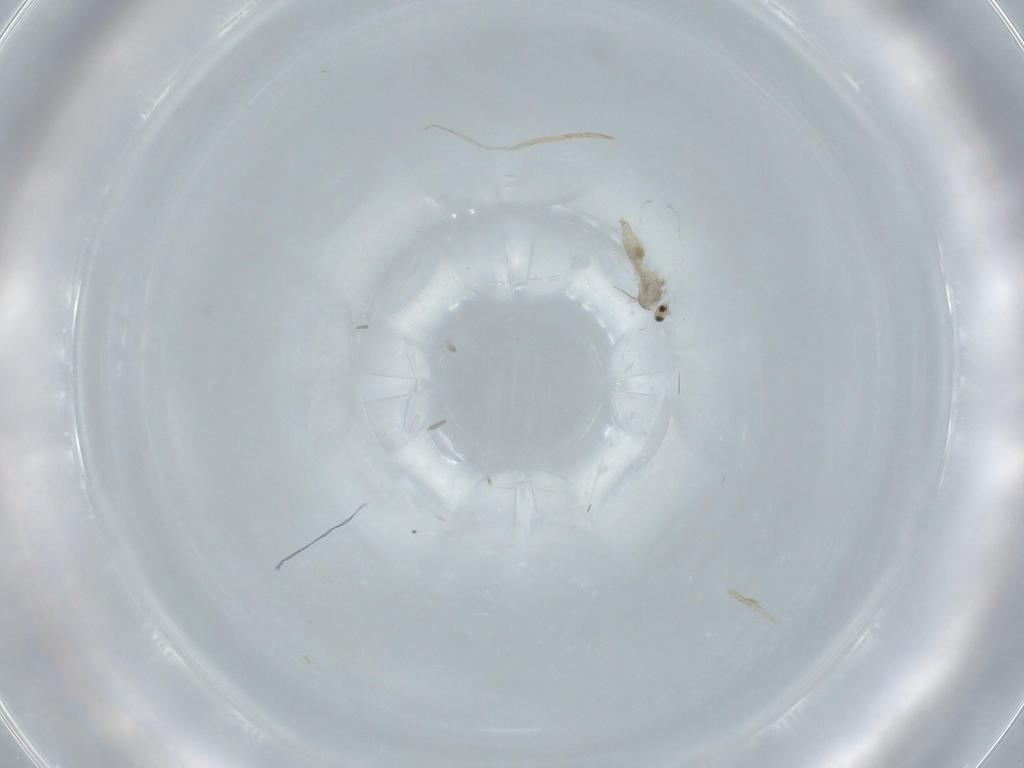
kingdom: Animalia
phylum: Arthropoda
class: Insecta
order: Diptera
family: Cecidomyiidae
